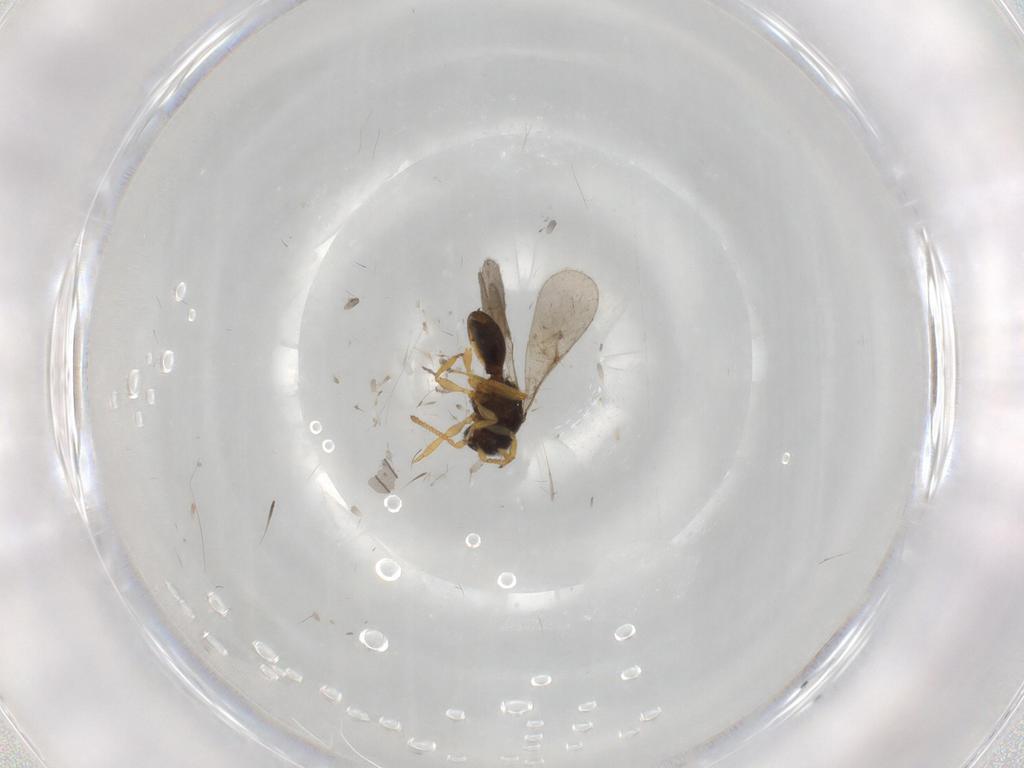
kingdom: Animalia
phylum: Arthropoda
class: Insecta
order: Hymenoptera
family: Scelionidae
